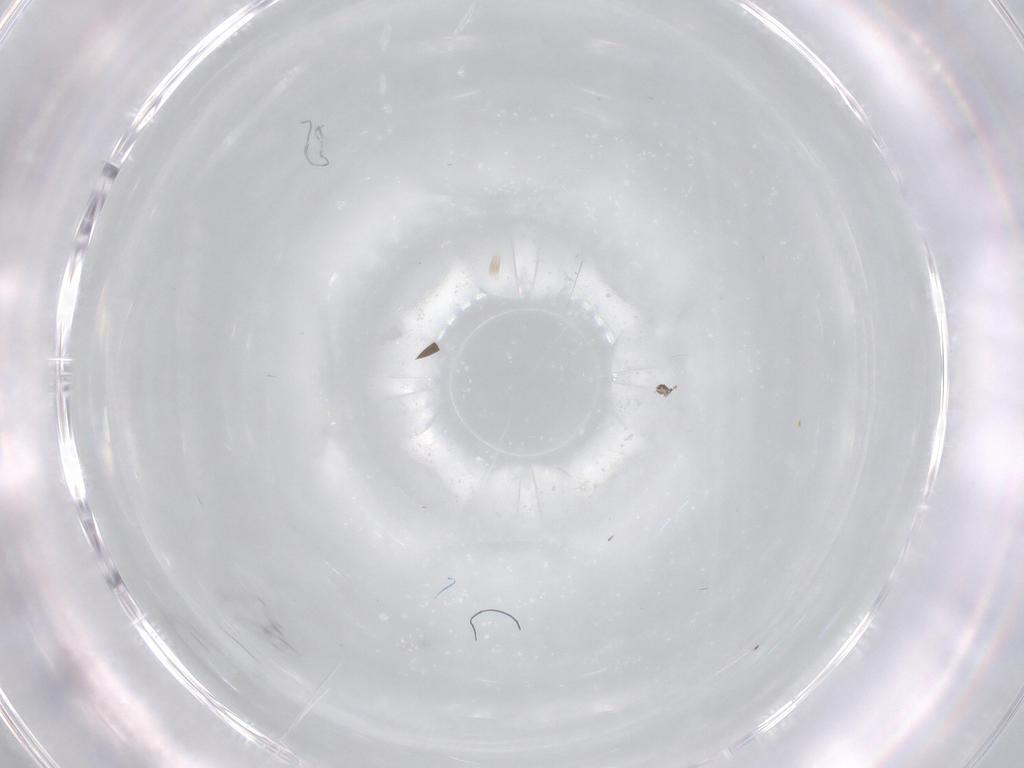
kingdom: Animalia
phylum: Arthropoda
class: Insecta
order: Diptera
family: Cecidomyiidae
